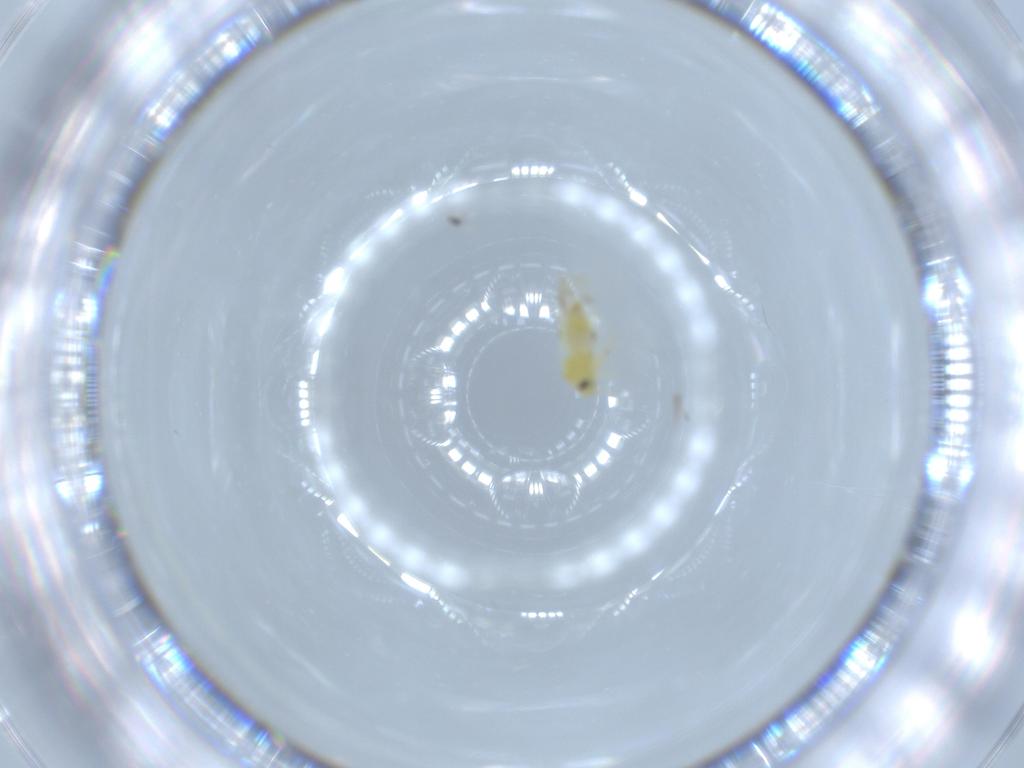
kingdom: Animalia
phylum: Arthropoda
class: Insecta
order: Hemiptera
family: Aleyrodidae
